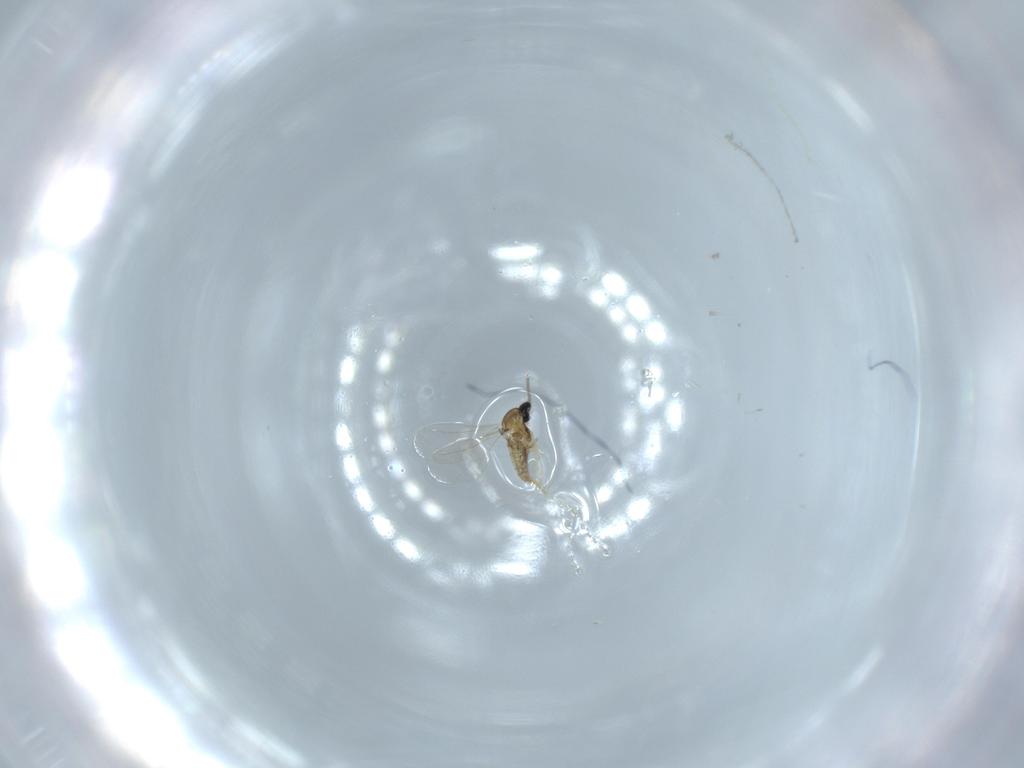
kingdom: Animalia
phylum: Arthropoda
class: Insecta
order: Diptera
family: Cecidomyiidae
